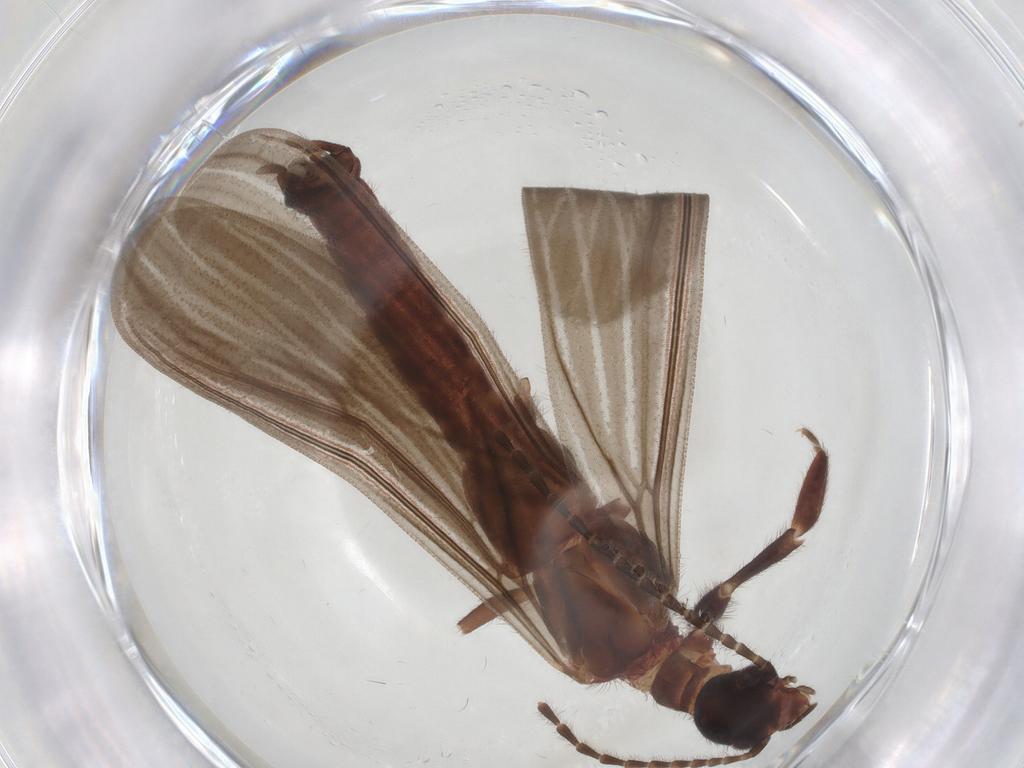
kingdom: Animalia
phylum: Arthropoda
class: Insecta
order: Embioptera
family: Anisembiidae
